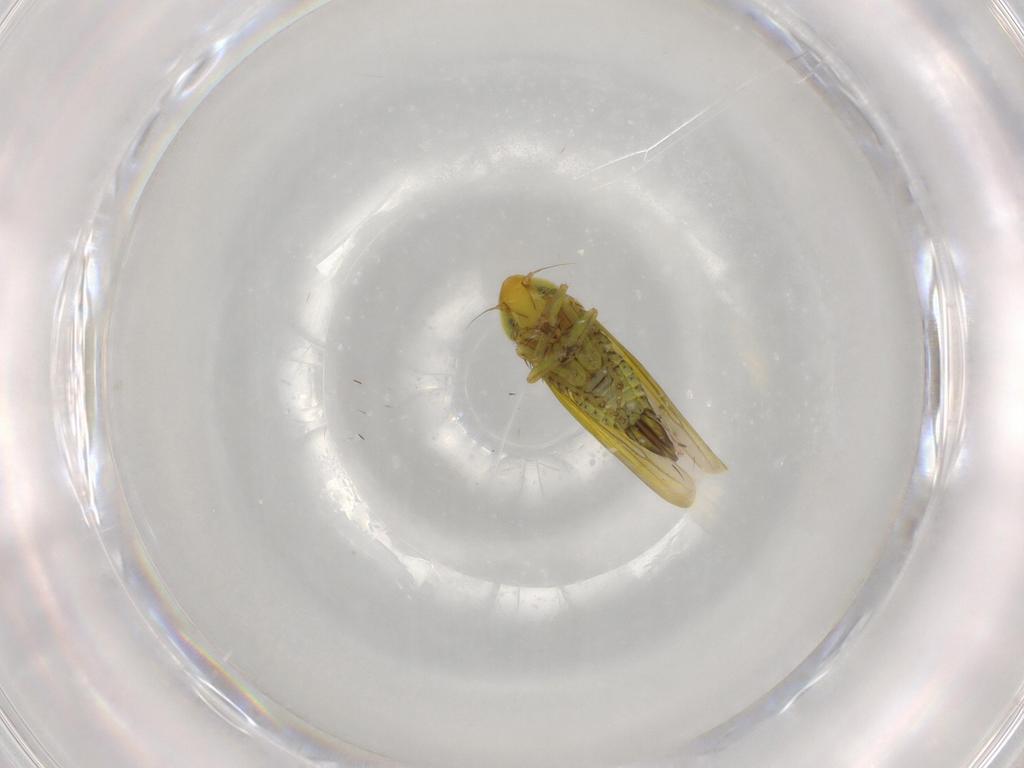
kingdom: Animalia
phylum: Arthropoda
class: Insecta
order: Hemiptera
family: Cicadellidae
